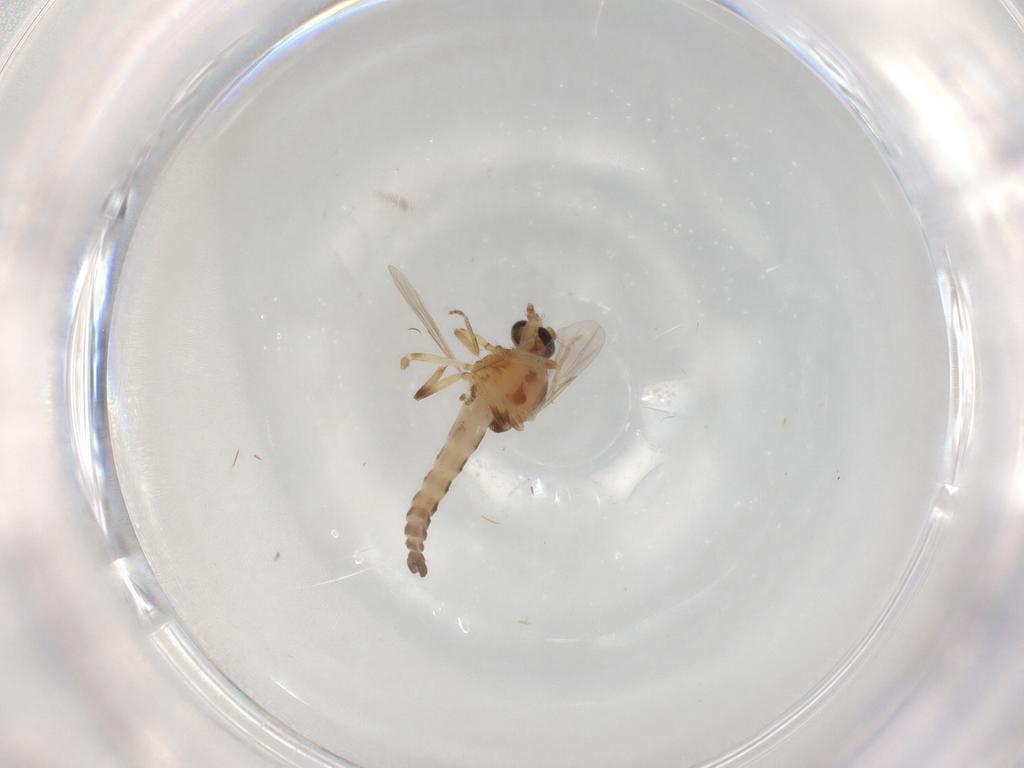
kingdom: Animalia
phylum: Arthropoda
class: Insecta
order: Diptera
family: Ceratopogonidae
